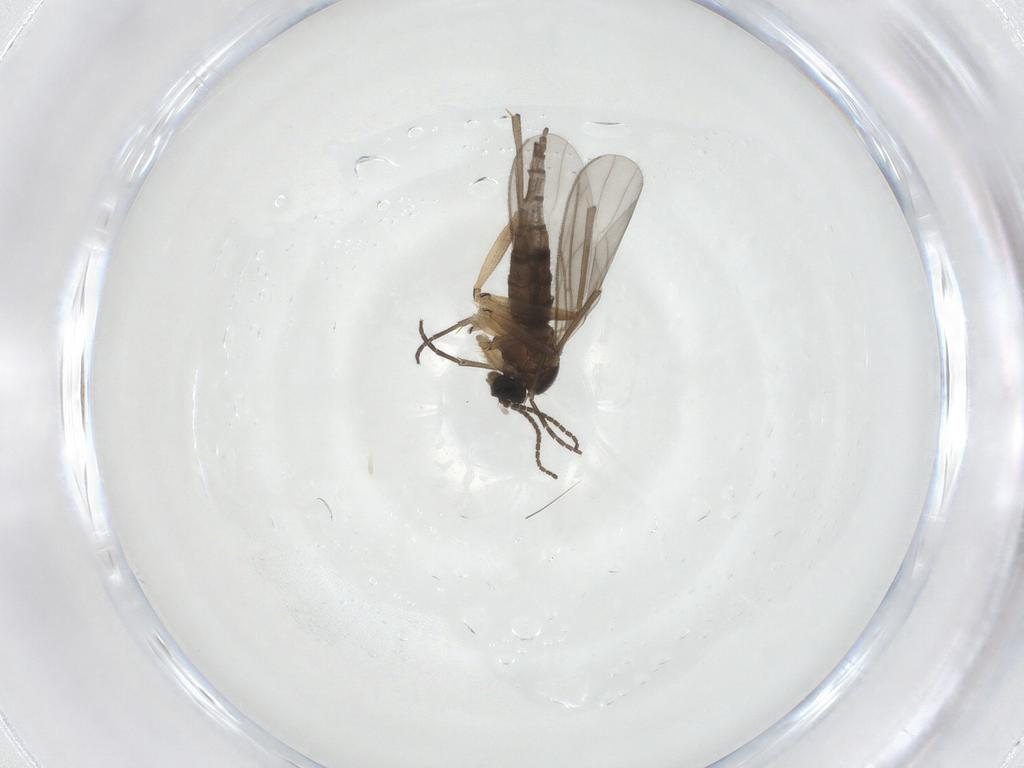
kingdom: Animalia
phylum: Arthropoda
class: Insecta
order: Diptera
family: Sciaridae
